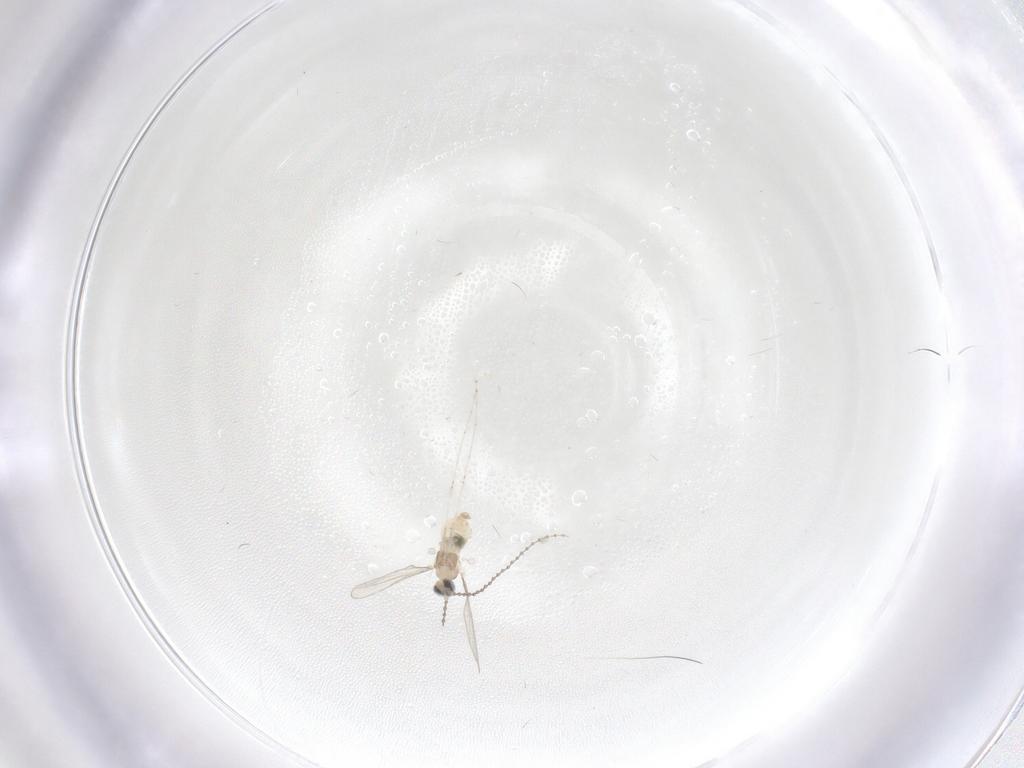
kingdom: Animalia
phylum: Arthropoda
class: Insecta
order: Diptera
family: Cecidomyiidae
